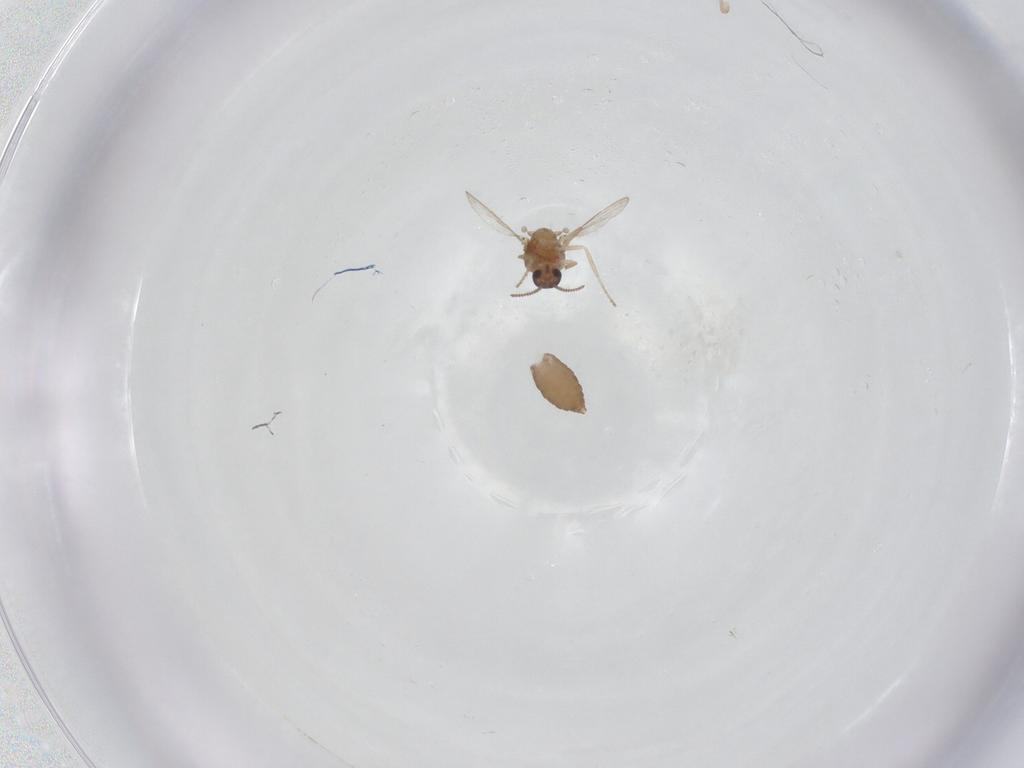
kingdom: Animalia
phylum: Arthropoda
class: Insecta
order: Diptera
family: Ceratopogonidae
